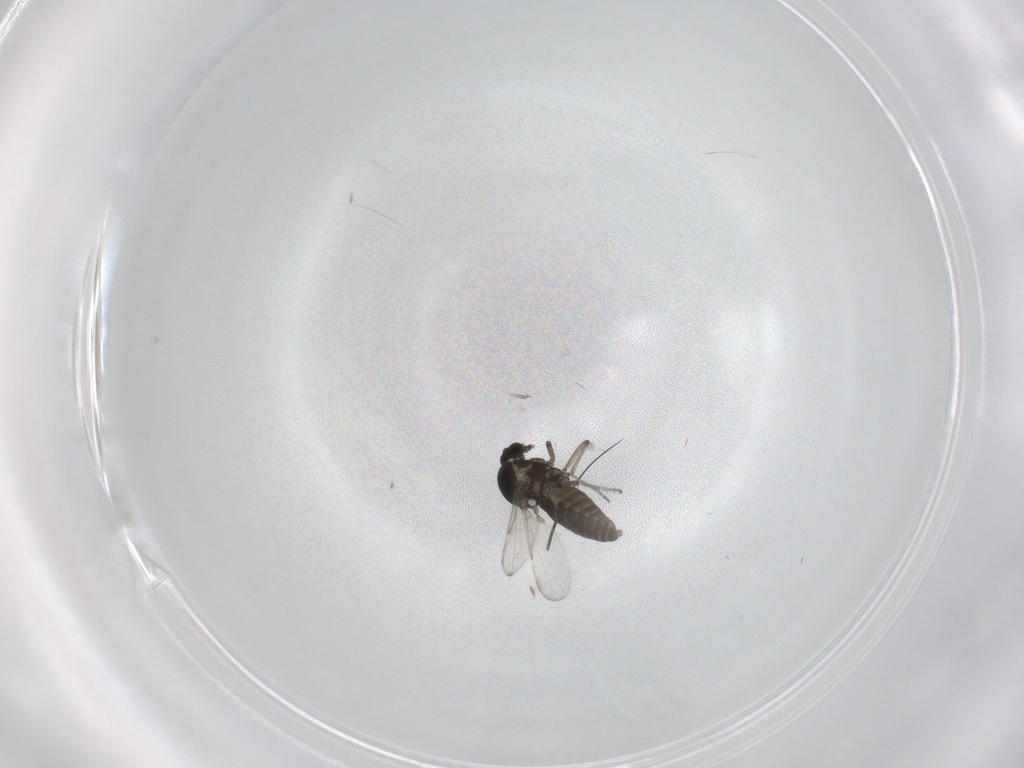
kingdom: Animalia
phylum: Arthropoda
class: Insecta
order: Diptera
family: Ceratopogonidae
